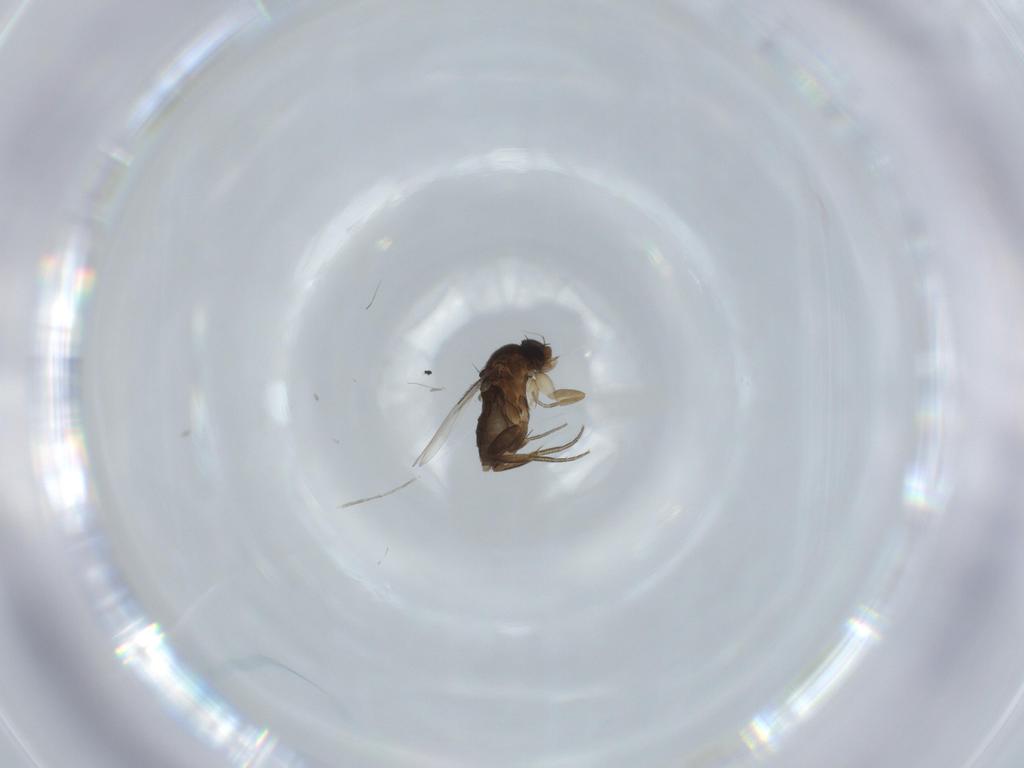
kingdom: Animalia
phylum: Arthropoda
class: Insecta
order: Diptera
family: Phoridae
